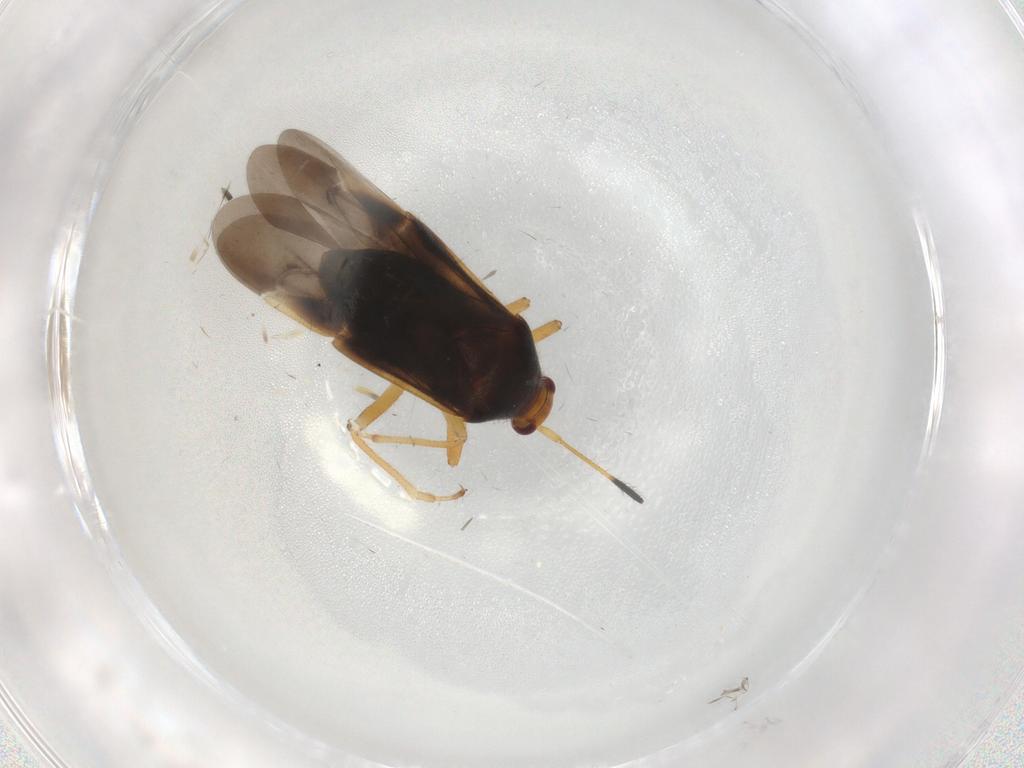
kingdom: Animalia
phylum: Arthropoda
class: Insecta
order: Hemiptera
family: Miridae
